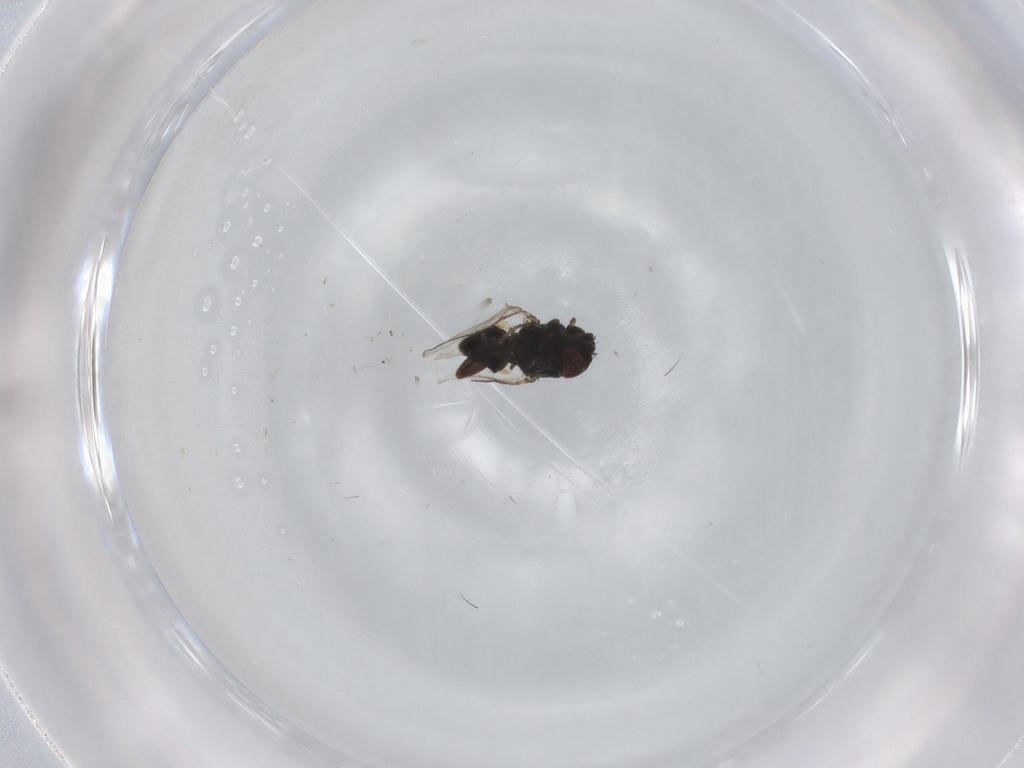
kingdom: Animalia
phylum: Arthropoda
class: Insecta
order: Diptera
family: Milichiidae
